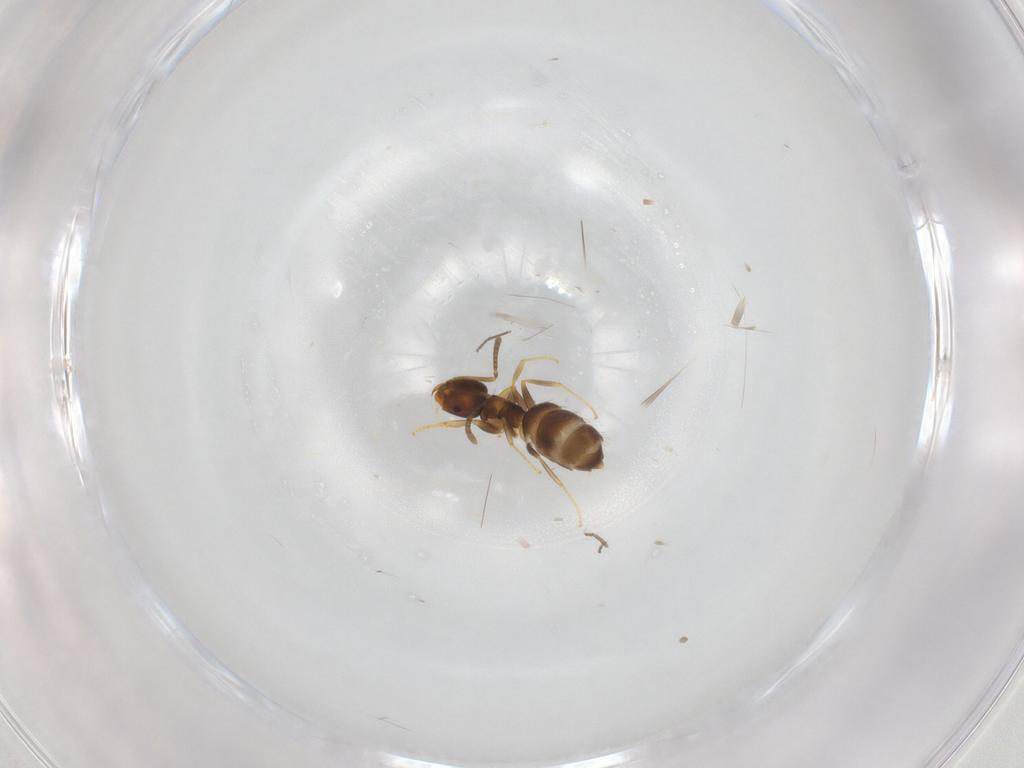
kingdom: Animalia
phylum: Arthropoda
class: Insecta
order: Hymenoptera
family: Formicidae
